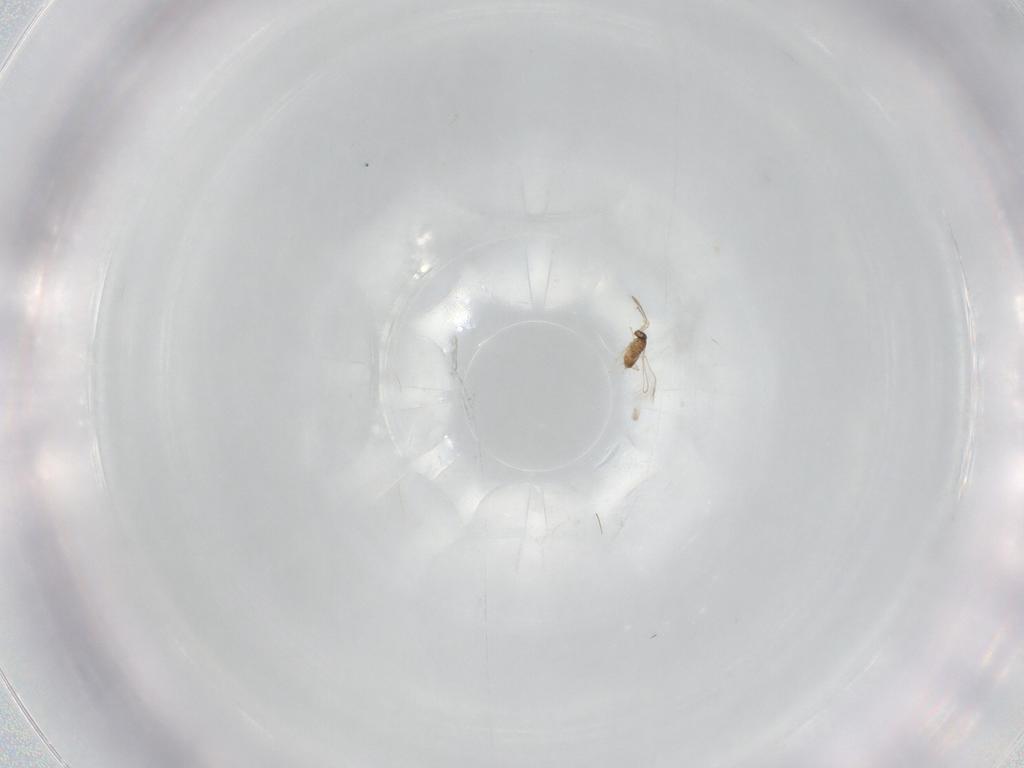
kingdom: Animalia
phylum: Arthropoda
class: Insecta
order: Hymenoptera
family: Mymaridae
